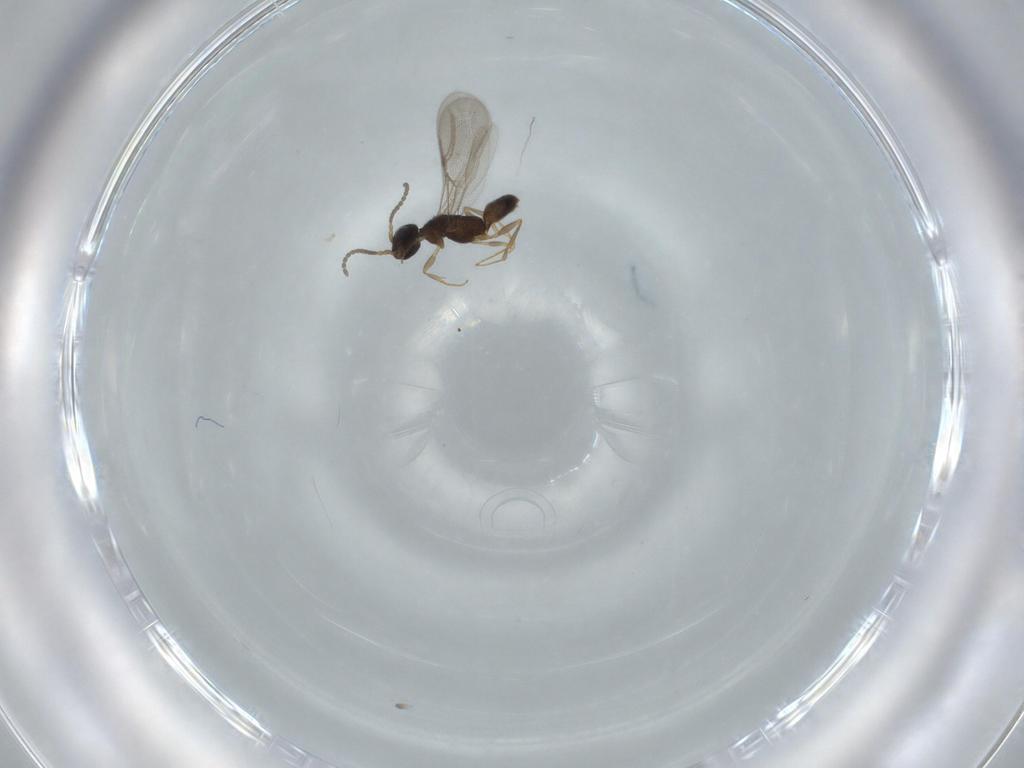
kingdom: Animalia
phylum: Arthropoda
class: Insecta
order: Hymenoptera
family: Bethylidae
